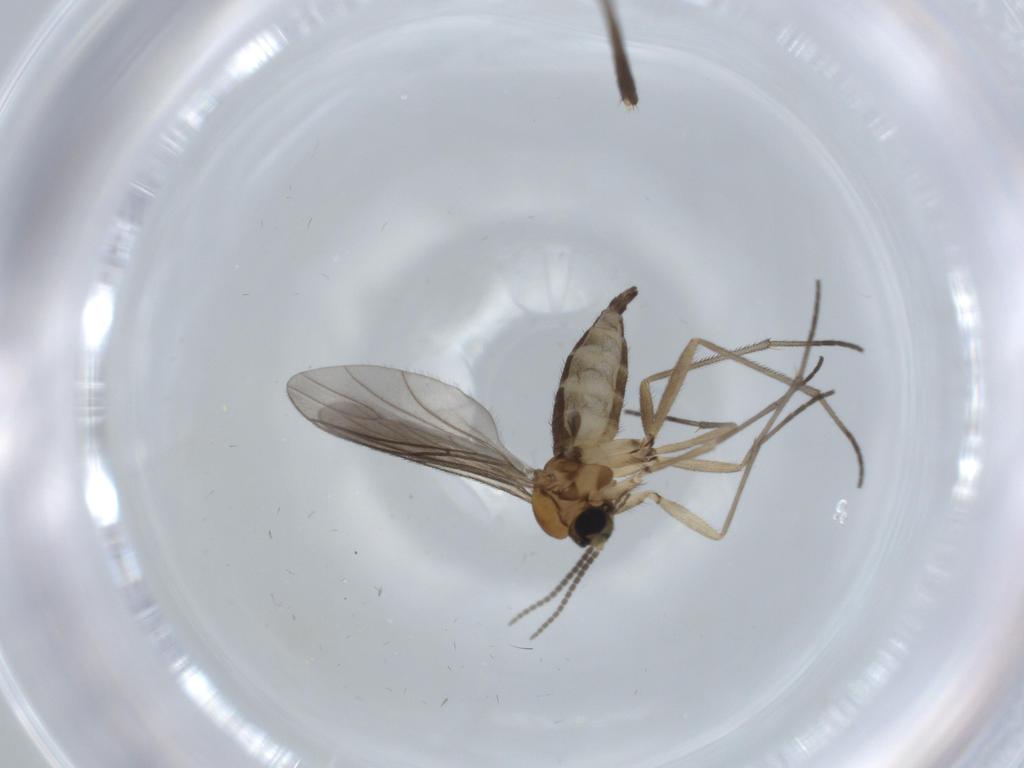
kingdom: Animalia
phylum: Arthropoda
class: Insecta
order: Diptera
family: Sciaridae
